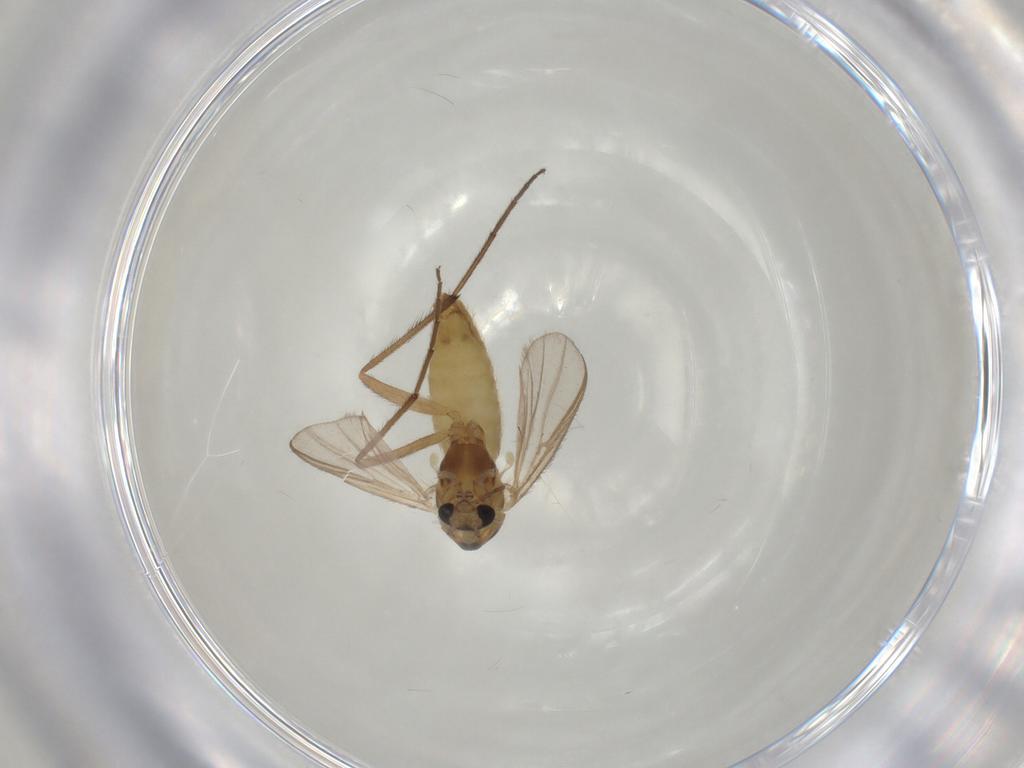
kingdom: Animalia
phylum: Arthropoda
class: Insecta
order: Diptera
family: Chironomidae
